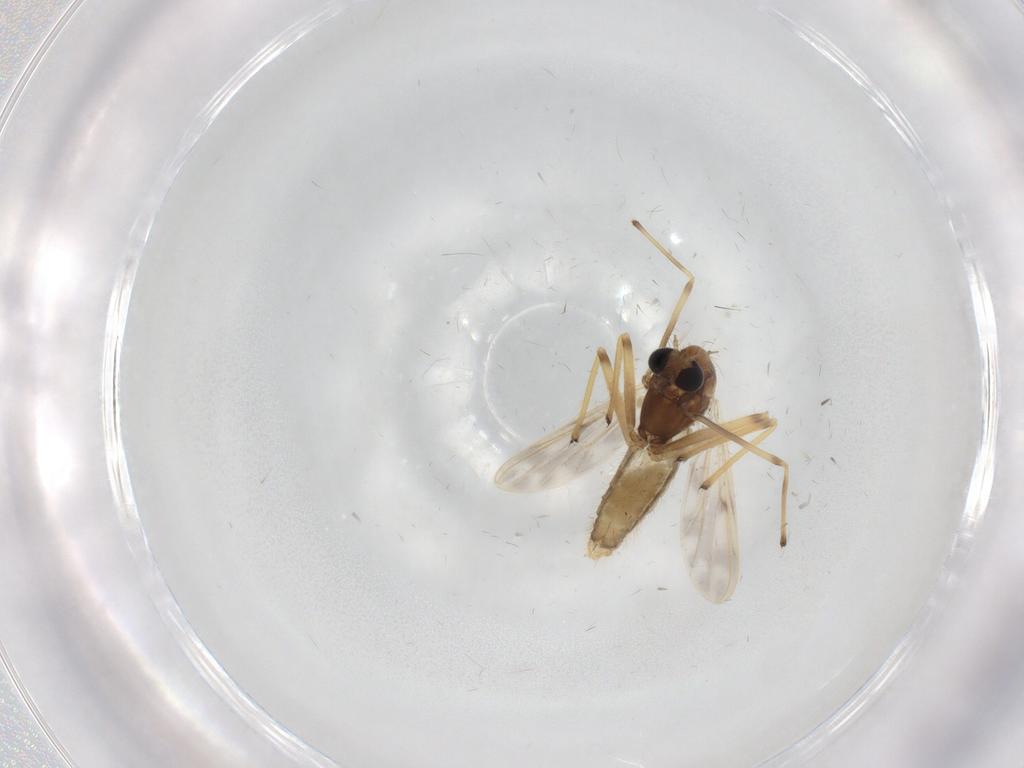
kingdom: Animalia
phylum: Arthropoda
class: Insecta
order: Diptera
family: Chironomidae
